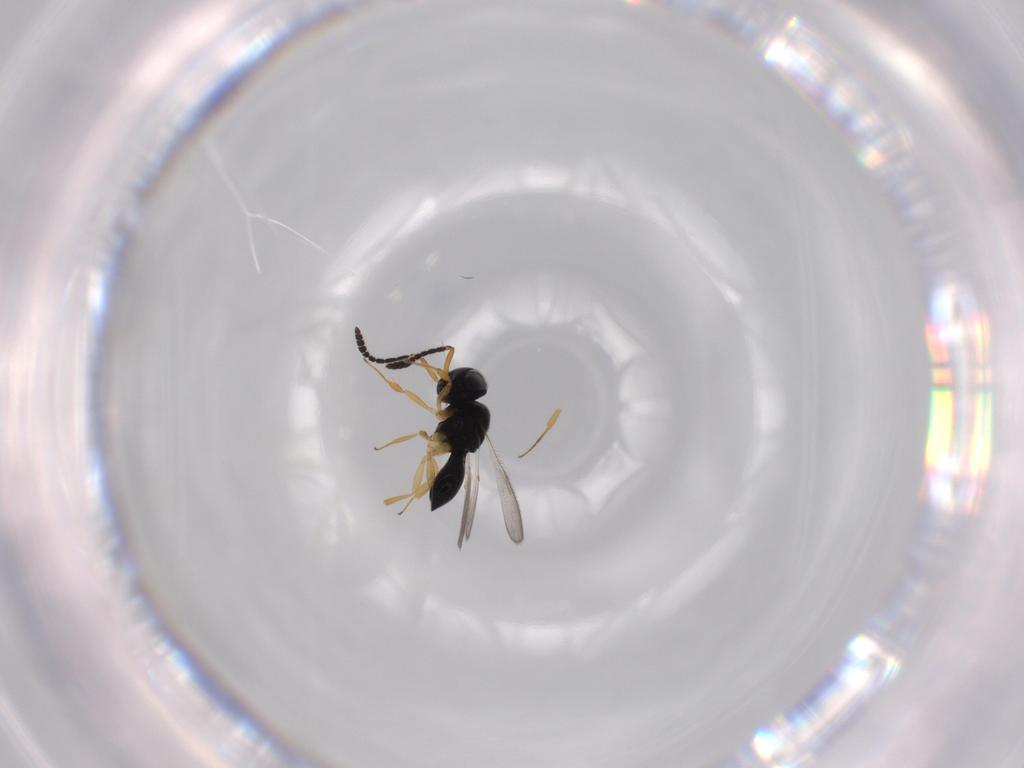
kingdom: Animalia
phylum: Arthropoda
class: Insecta
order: Hymenoptera
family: Scelionidae
